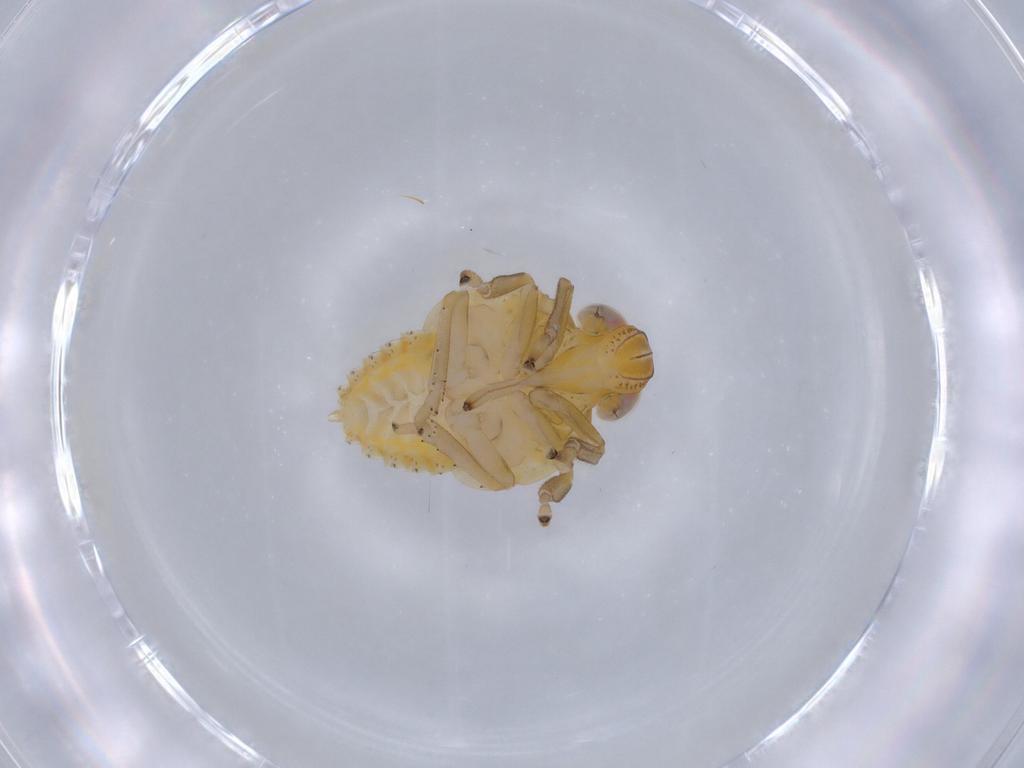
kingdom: Animalia
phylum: Arthropoda
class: Insecta
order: Hemiptera
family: Issidae
